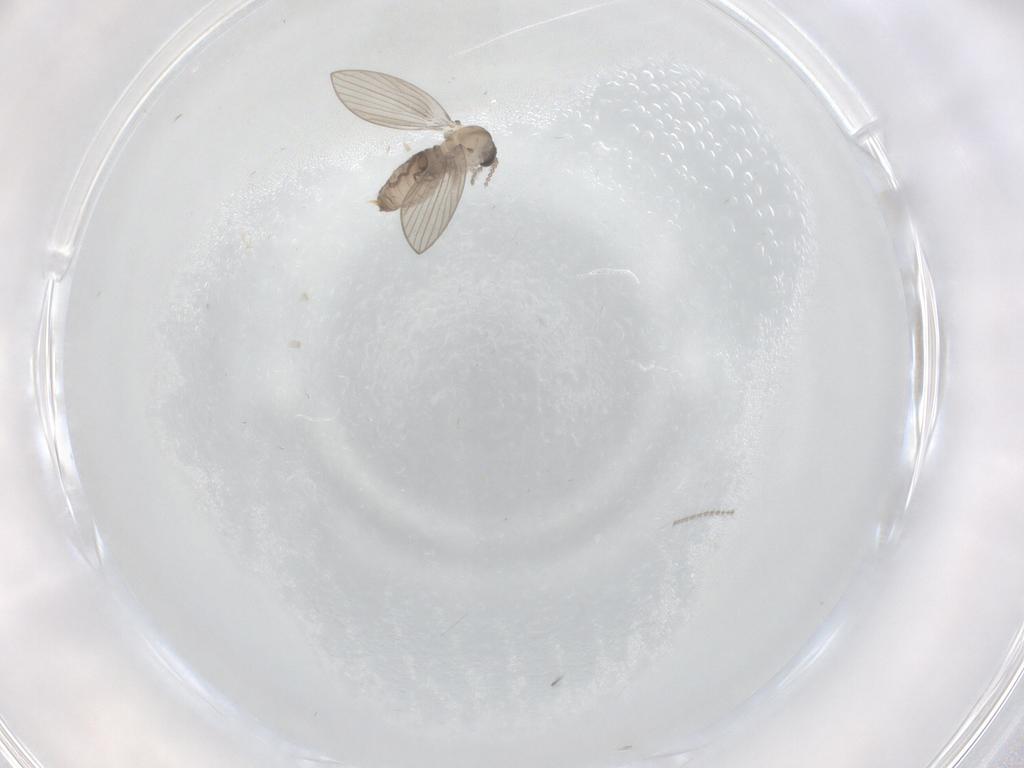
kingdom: Animalia
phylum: Arthropoda
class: Insecta
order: Diptera
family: Psychodidae
